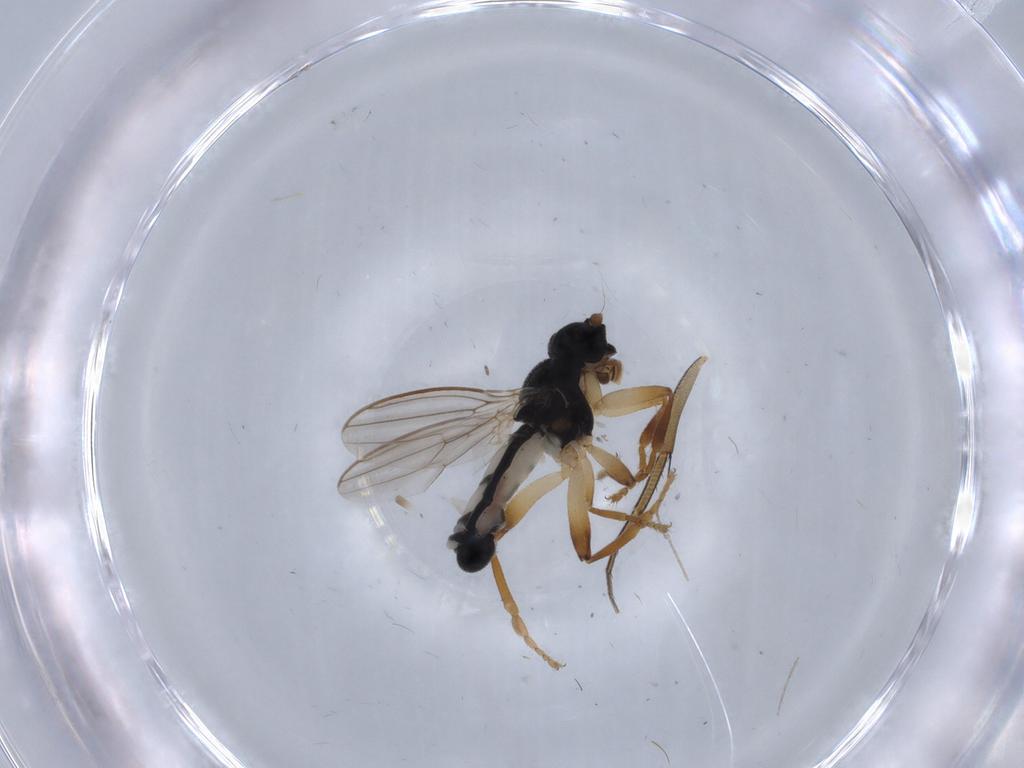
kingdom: Animalia
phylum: Arthropoda
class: Insecta
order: Diptera
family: Sphaeroceridae
